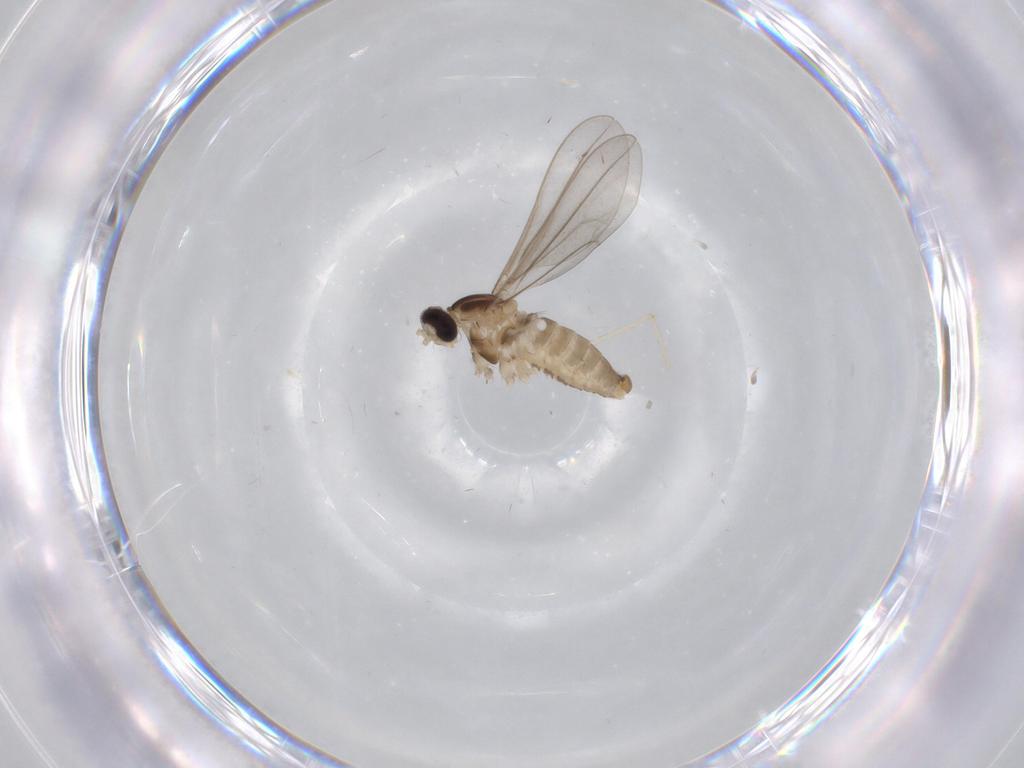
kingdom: Animalia
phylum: Arthropoda
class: Insecta
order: Diptera
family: Cecidomyiidae
